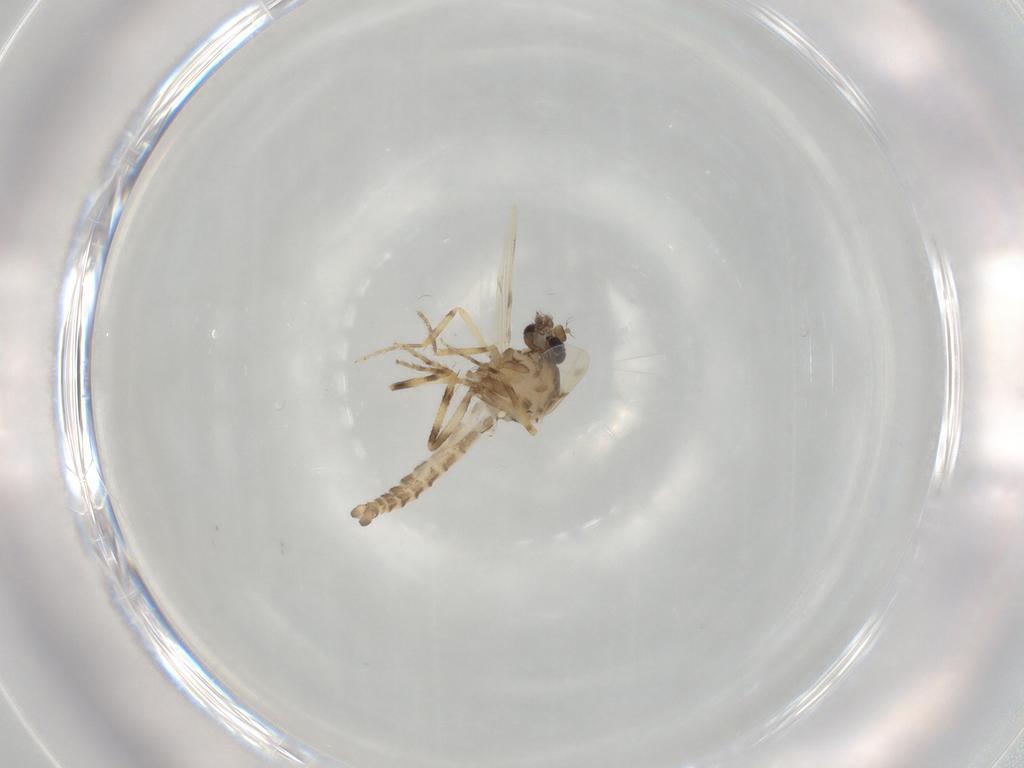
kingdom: Animalia
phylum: Arthropoda
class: Insecta
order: Diptera
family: Ceratopogonidae
